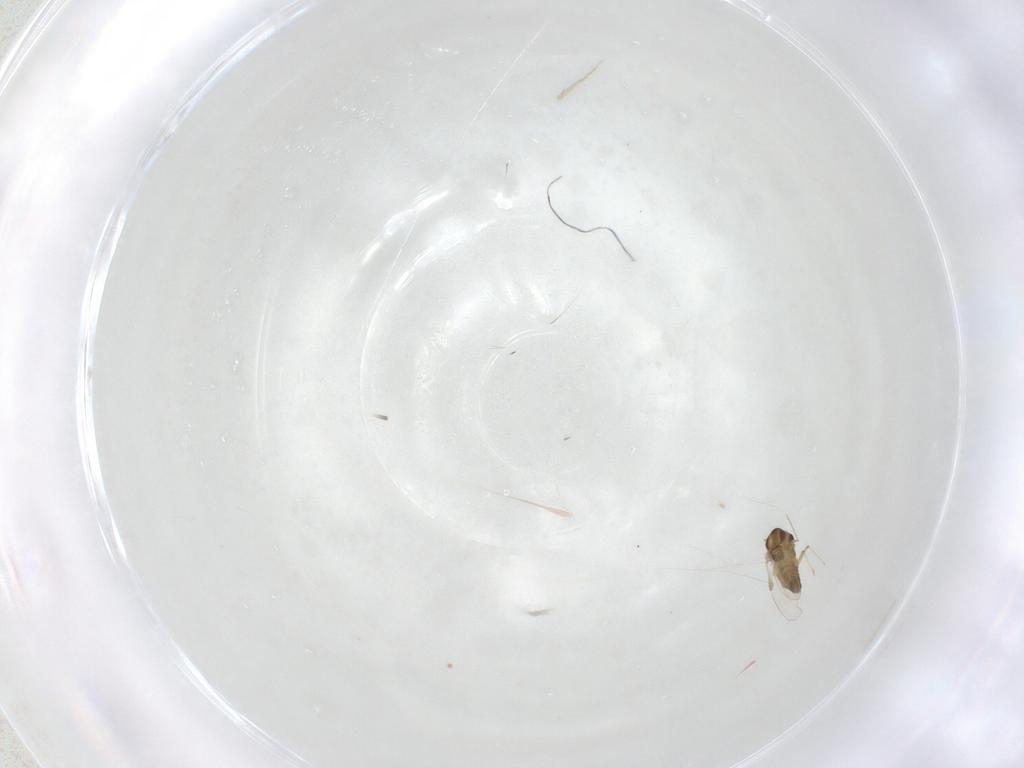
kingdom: Animalia
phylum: Arthropoda
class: Insecta
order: Diptera
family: Chironomidae
